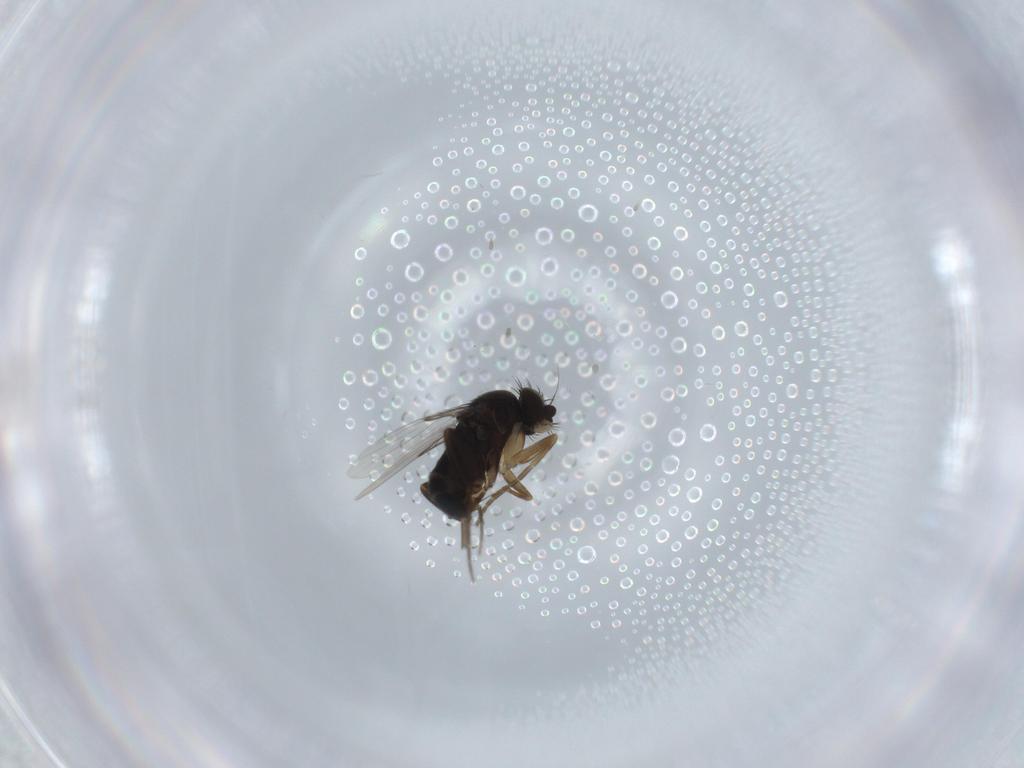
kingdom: Animalia
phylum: Arthropoda
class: Insecta
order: Diptera
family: Phoridae
